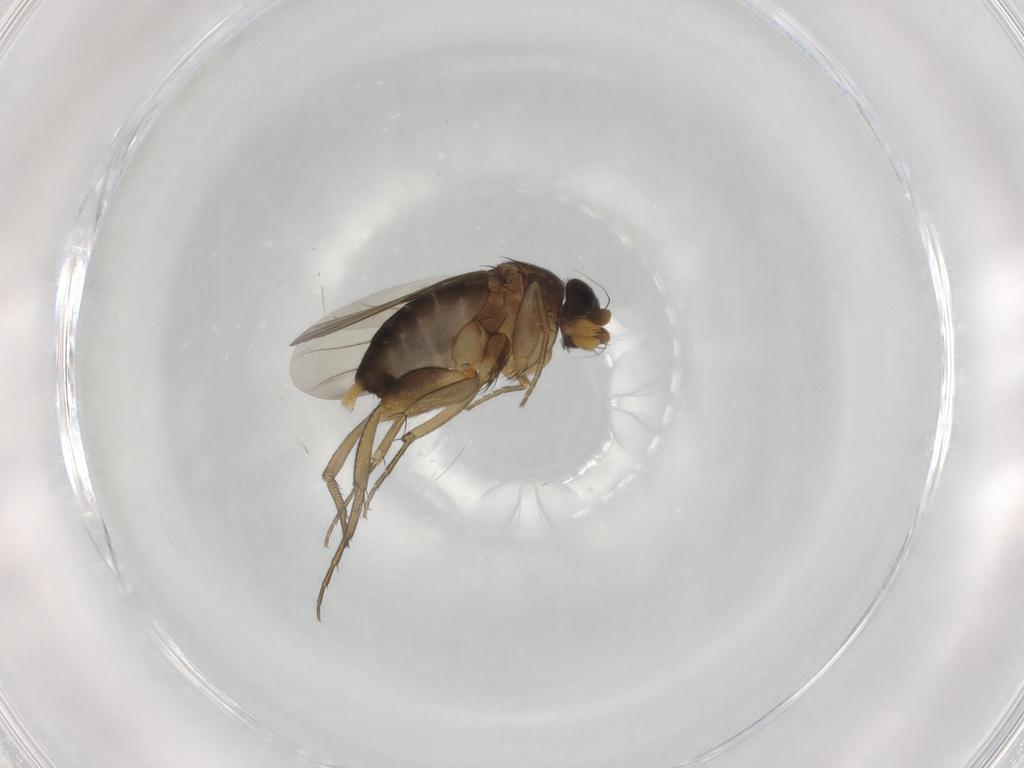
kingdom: Animalia
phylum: Arthropoda
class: Insecta
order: Diptera
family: Phoridae
